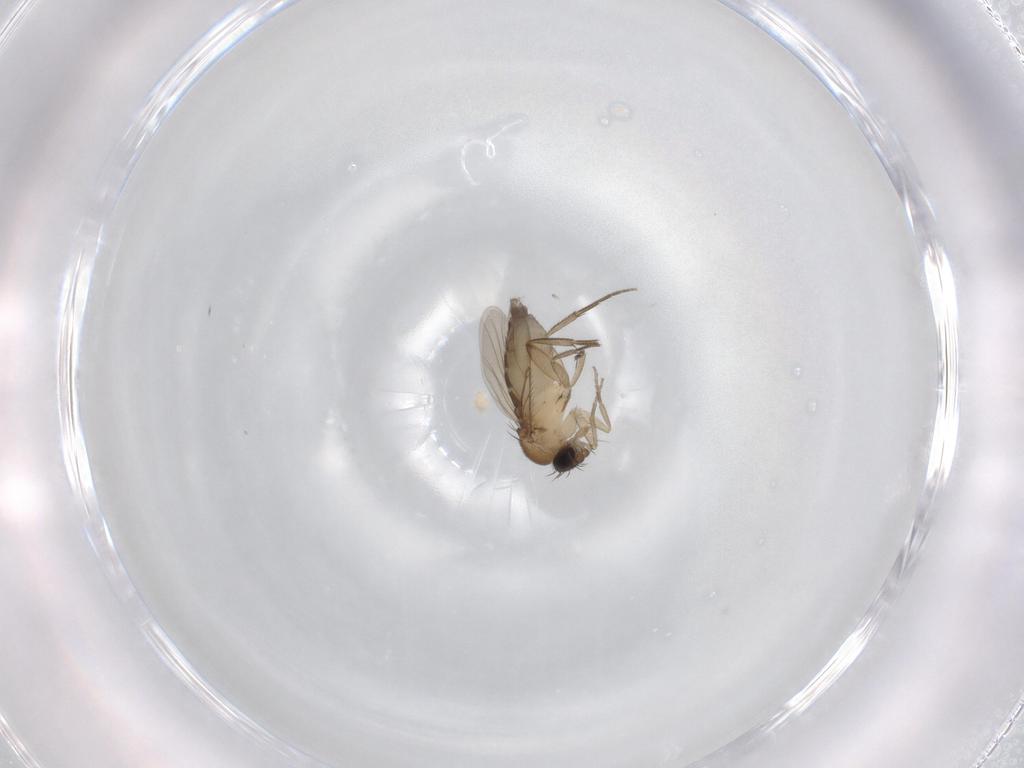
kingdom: Animalia
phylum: Arthropoda
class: Insecta
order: Diptera
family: Phoridae
